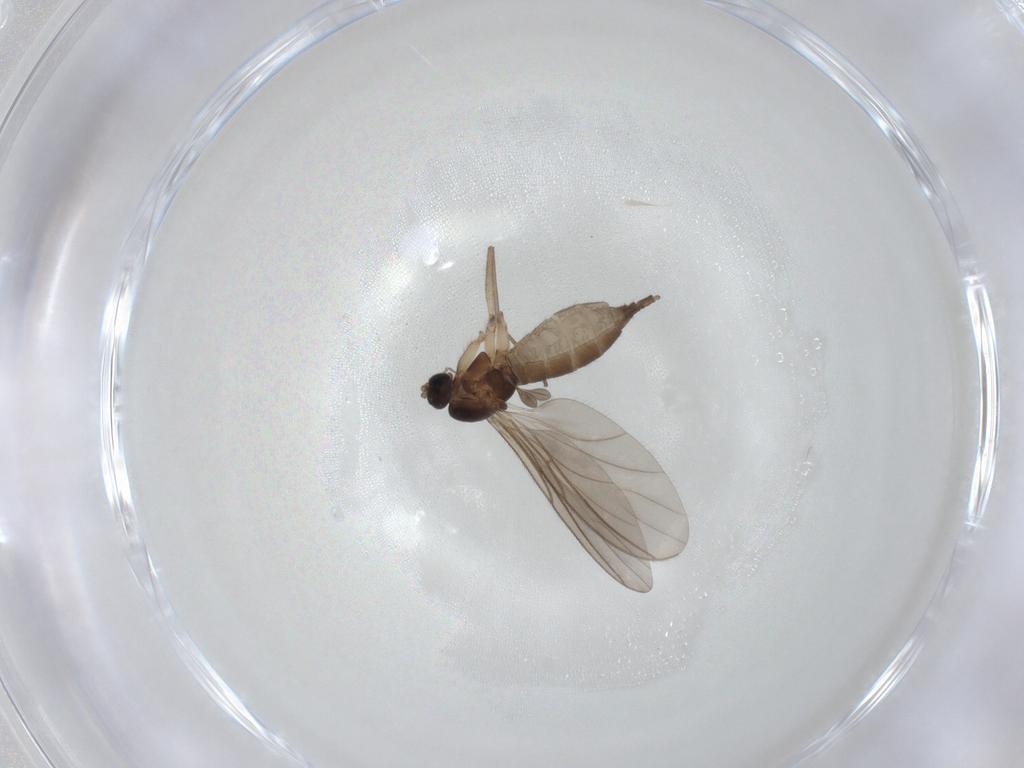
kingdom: Animalia
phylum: Arthropoda
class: Insecta
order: Diptera
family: Sciaridae
